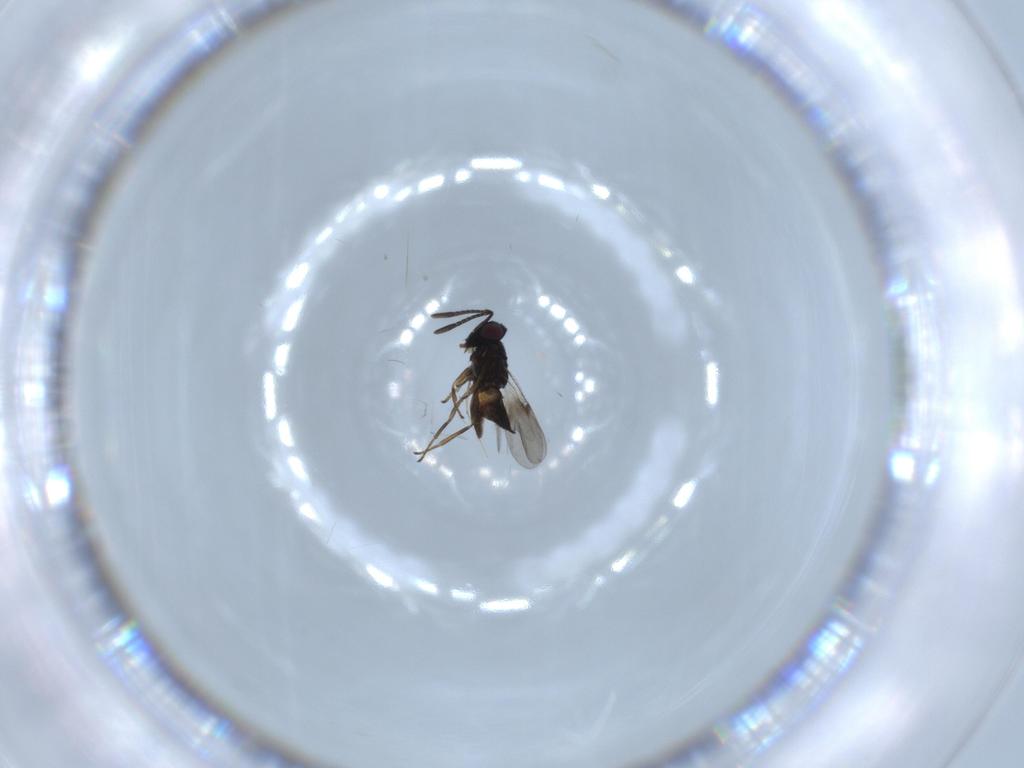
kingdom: Animalia
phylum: Arthropoda
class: Insecta
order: Hymenoptera
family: Encyrtidae
